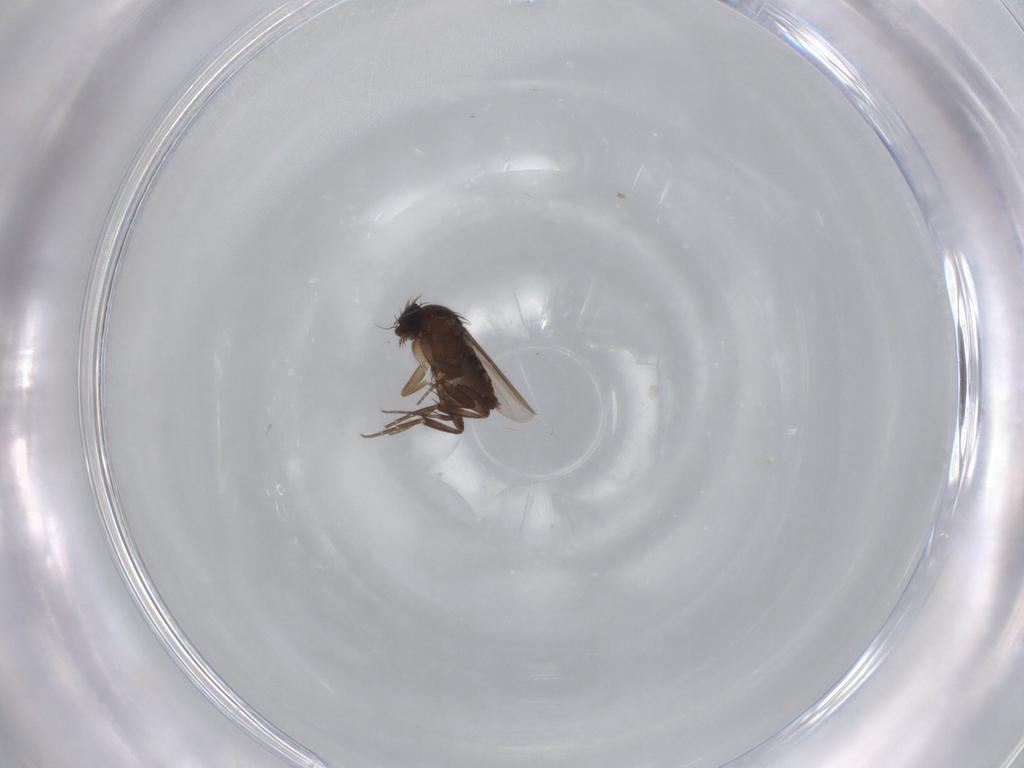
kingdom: Animalia
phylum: Arthropoda
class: Insecta
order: Diptera
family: Phoridae
